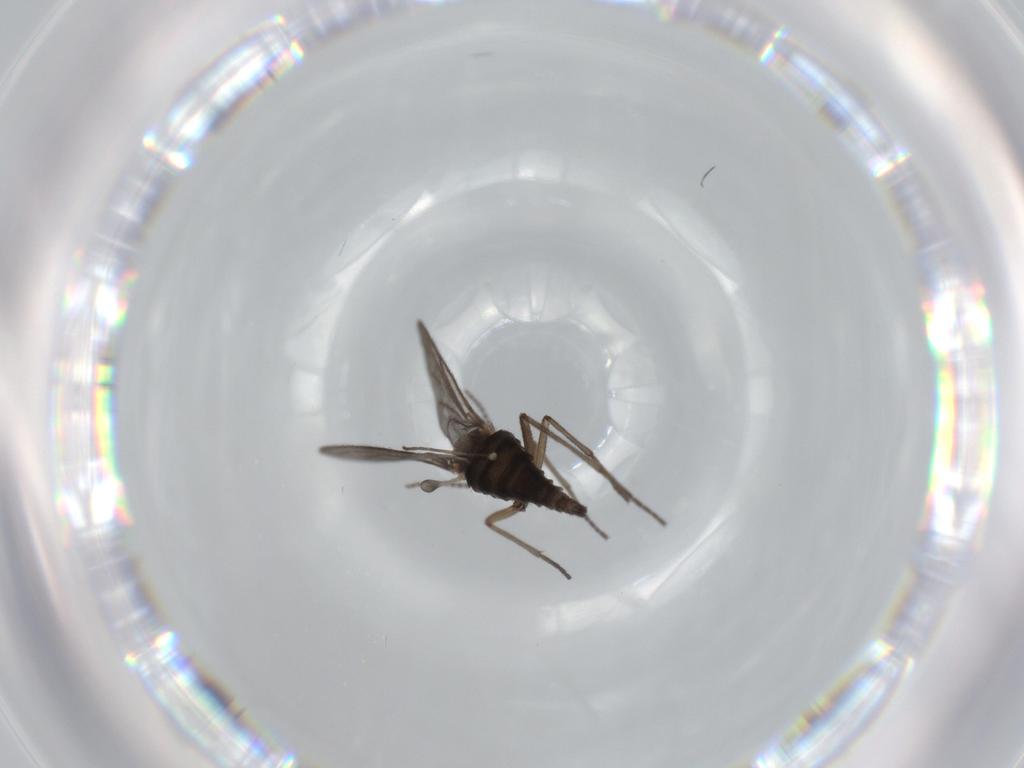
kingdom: Animalia
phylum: Arthropoda
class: Insecta
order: Diptera
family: Sciaridae
